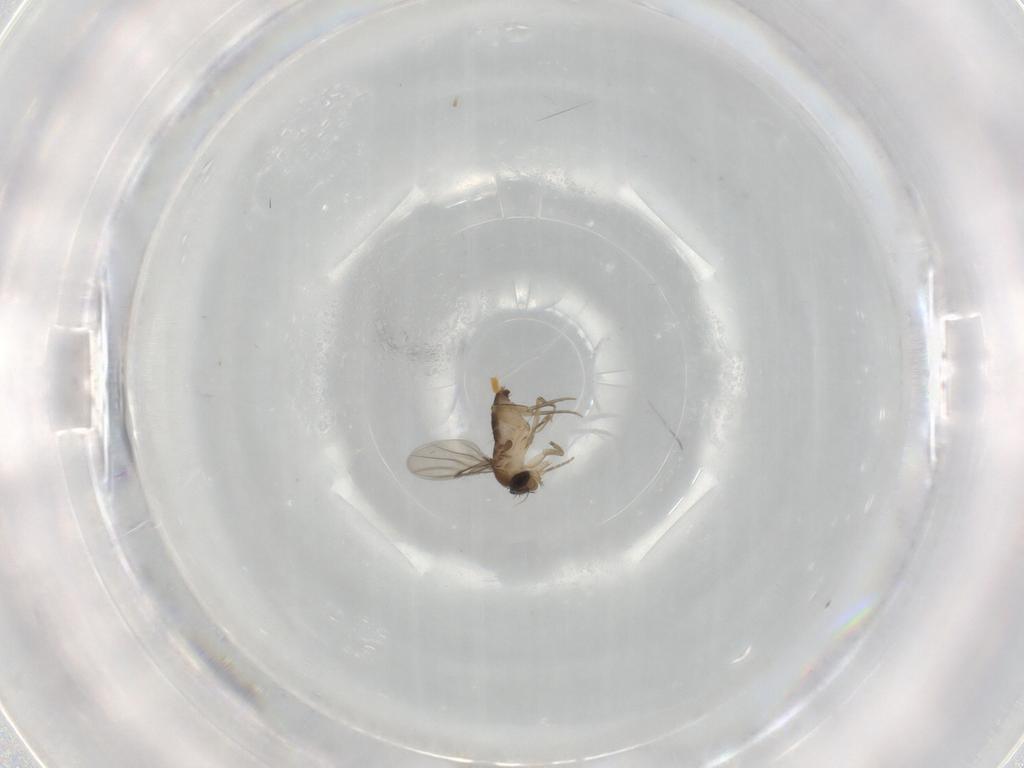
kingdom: Animalia
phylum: Arthropoda
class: Insecta
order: Diptera
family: Phoridae
